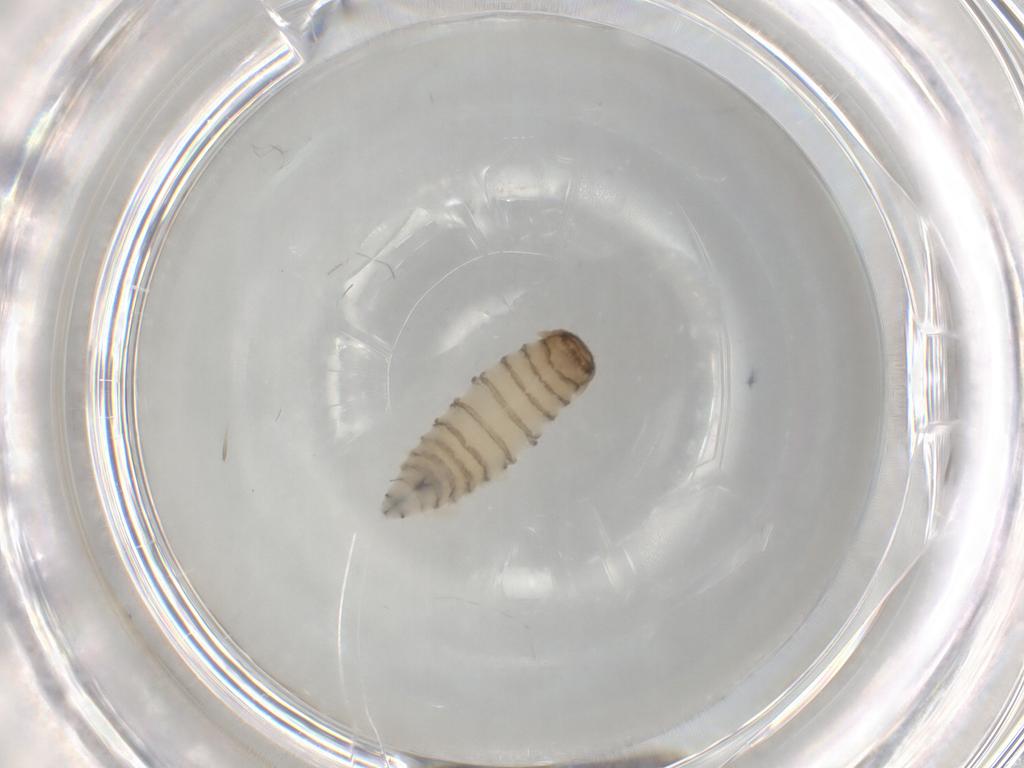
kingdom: Animalia
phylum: Arthropoda
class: Insecta
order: Diptera
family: Sarcophagidae
